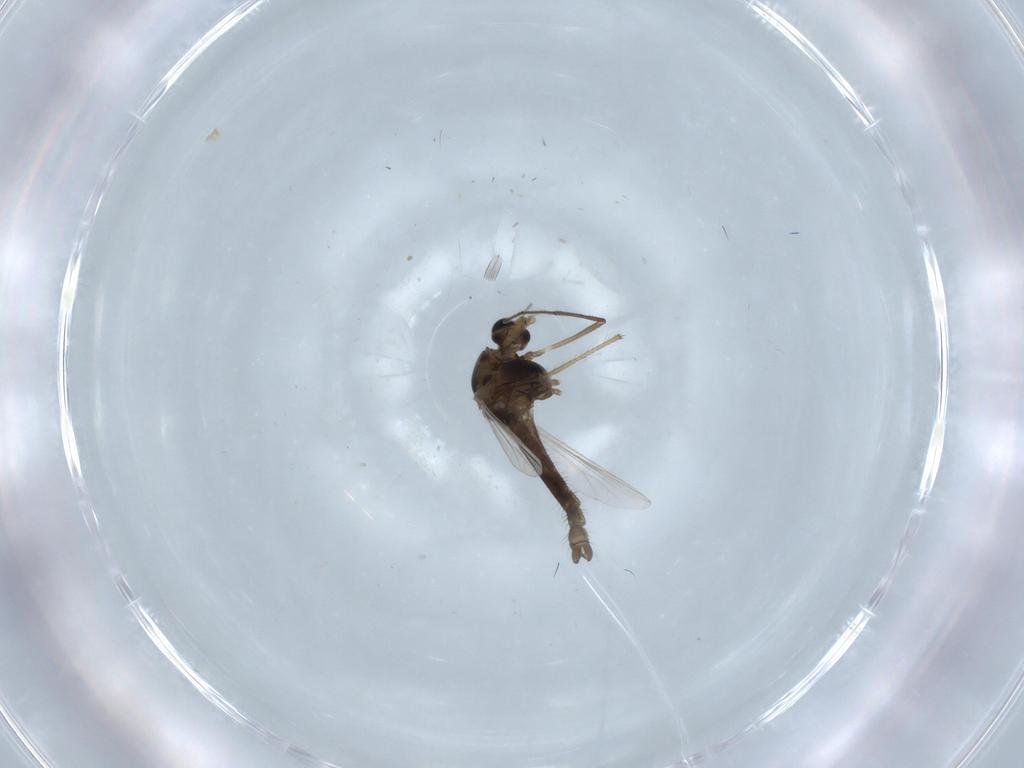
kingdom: Animalia
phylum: Arthropoda
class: Insecta
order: Diptera
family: Chironomidae
